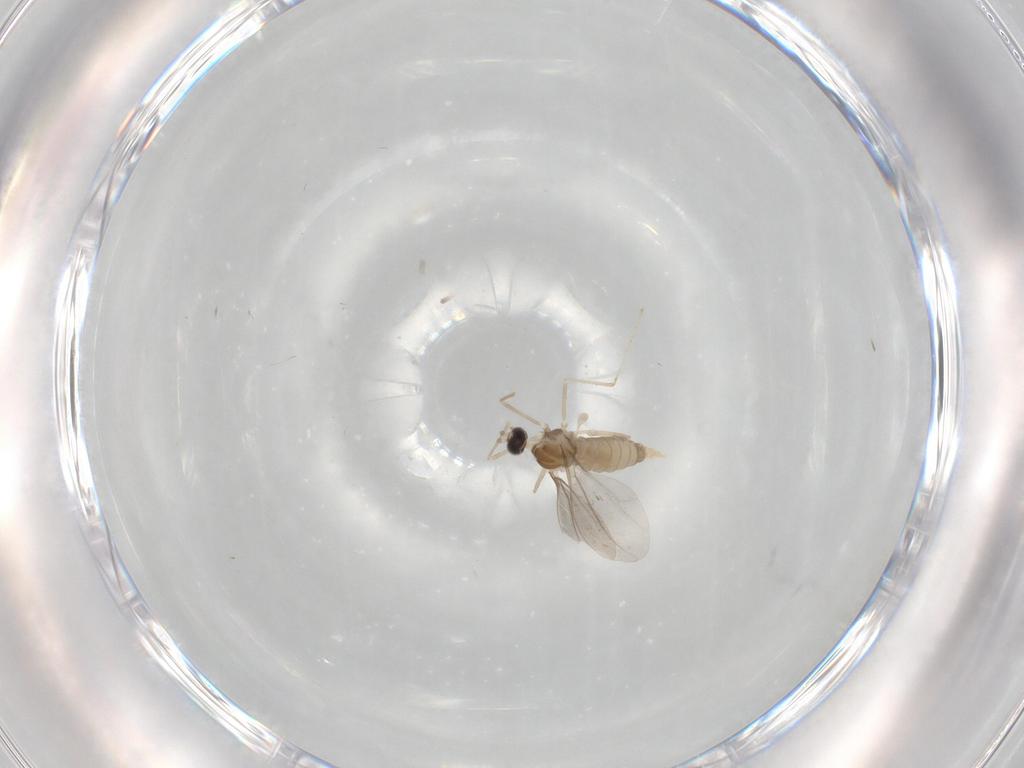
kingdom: Animalia
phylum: Arthropoda
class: Insecta
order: Diptera
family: Cecidomyiidae
